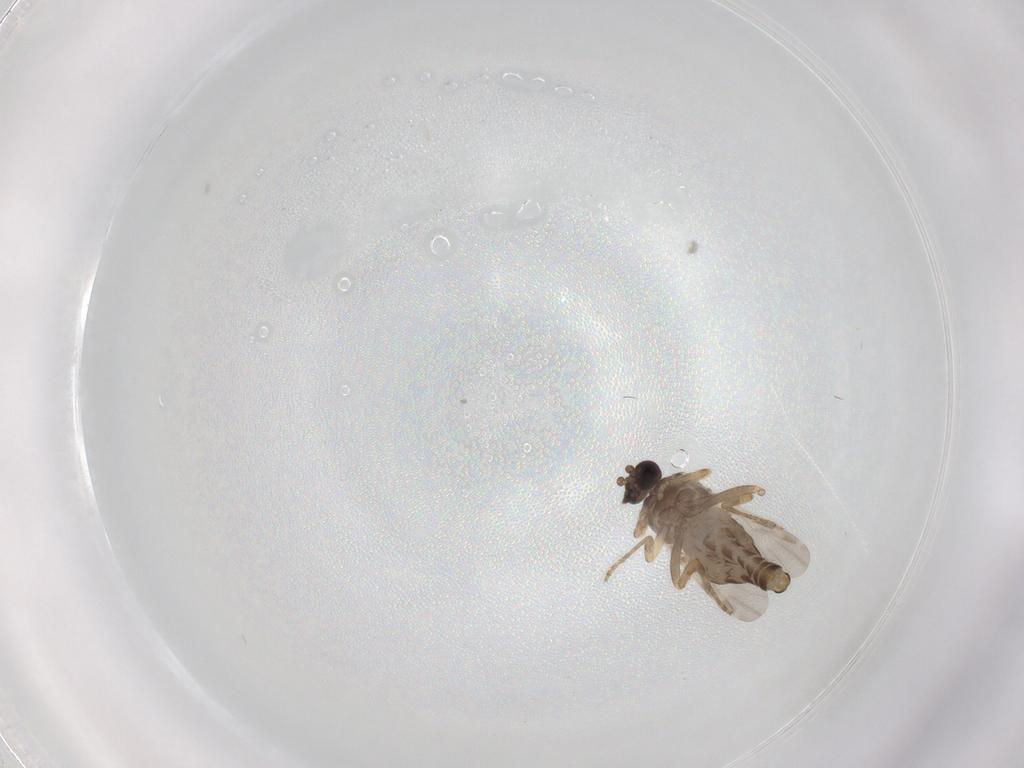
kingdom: Animalia
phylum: Arthropoda
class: Insecta
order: Diptera
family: Ceratopogonidae
